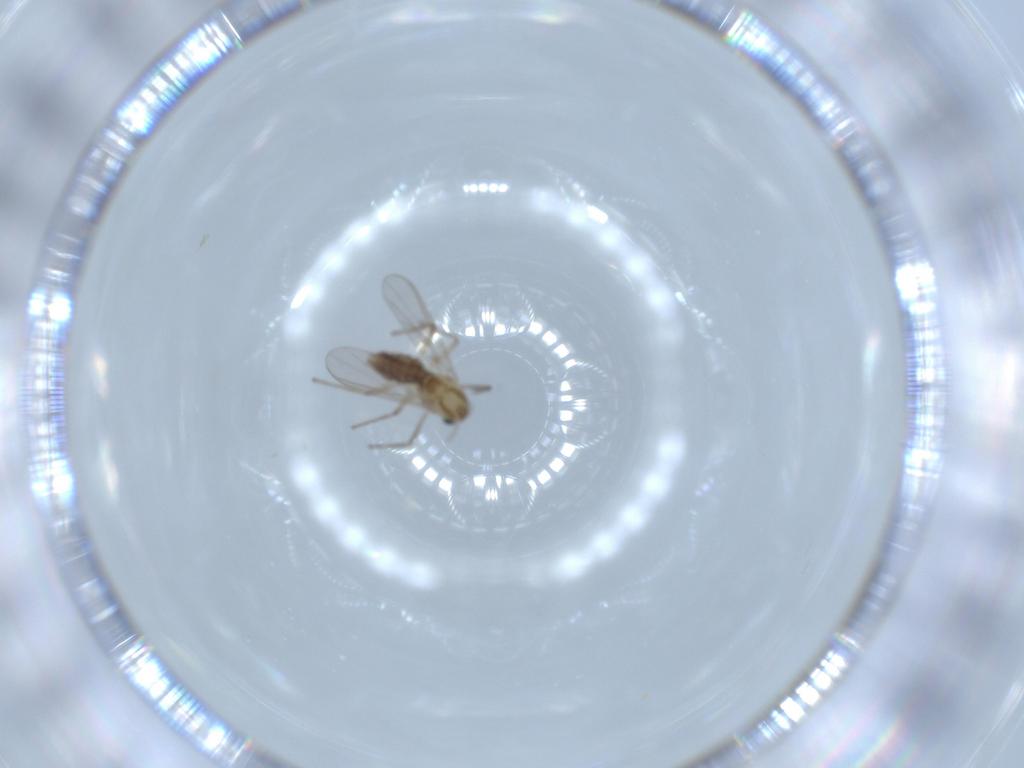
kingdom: Animalia
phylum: Arthropoda
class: Insecta
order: Diptera
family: Chironomidae
